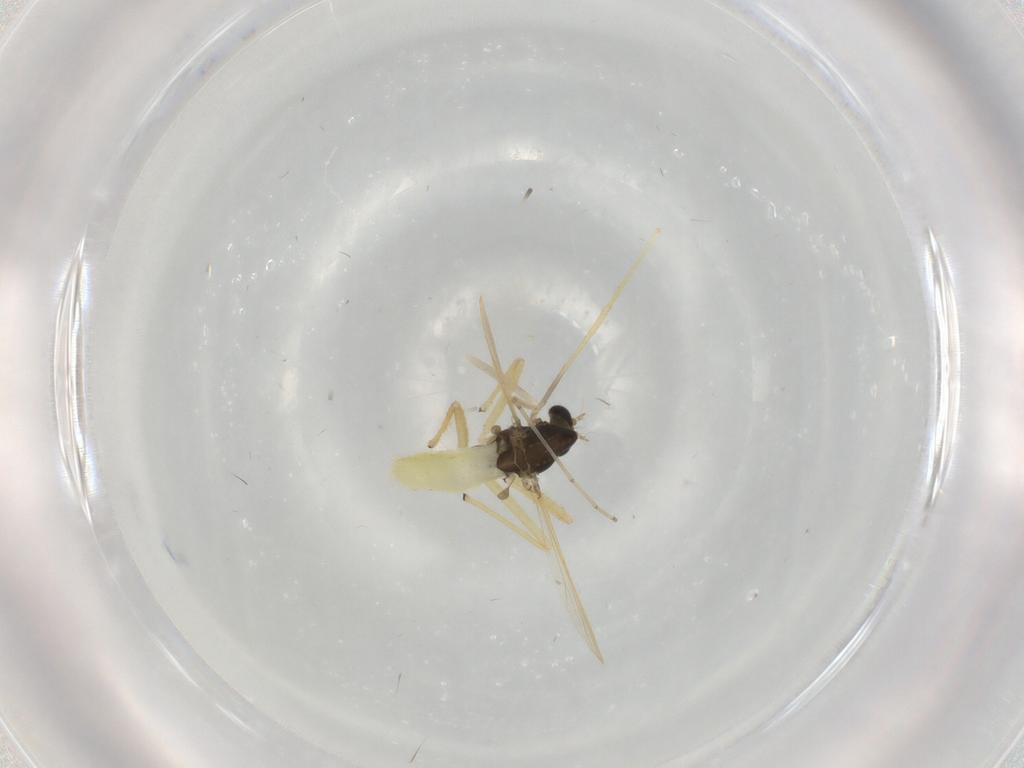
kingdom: Animalia
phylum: Arthropoda
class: Insecta
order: Diptera
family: Chironomidae
